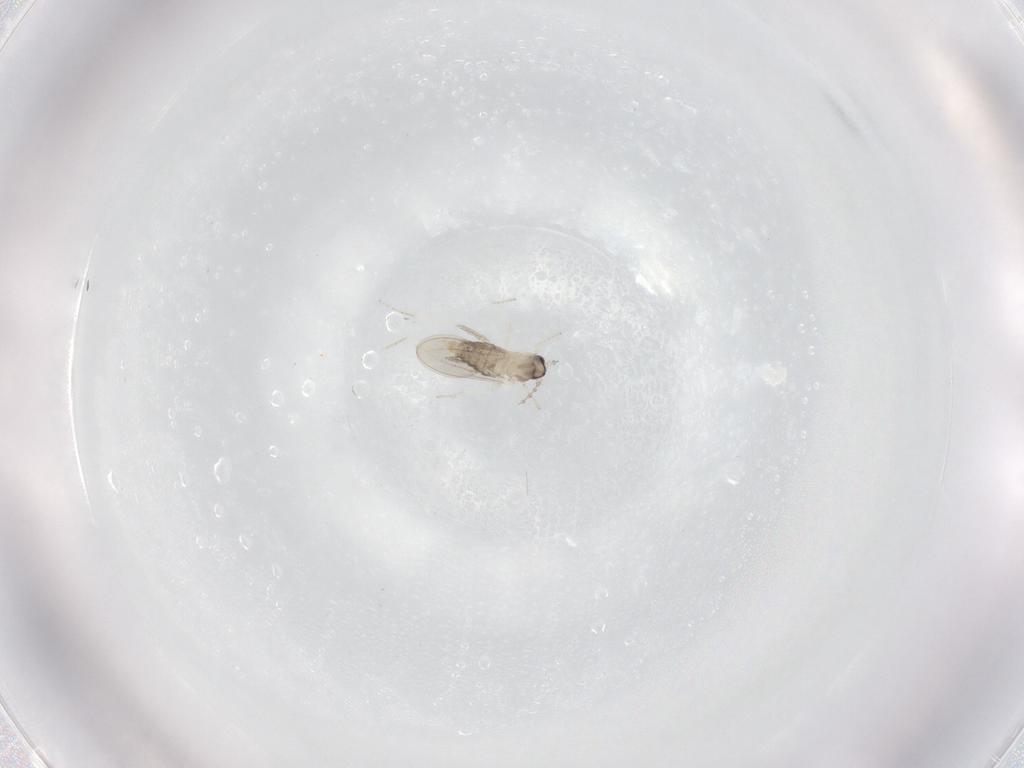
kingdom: Animalia
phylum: Arthropoda
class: Insecta
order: Diptera
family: Cecidomyiidae
